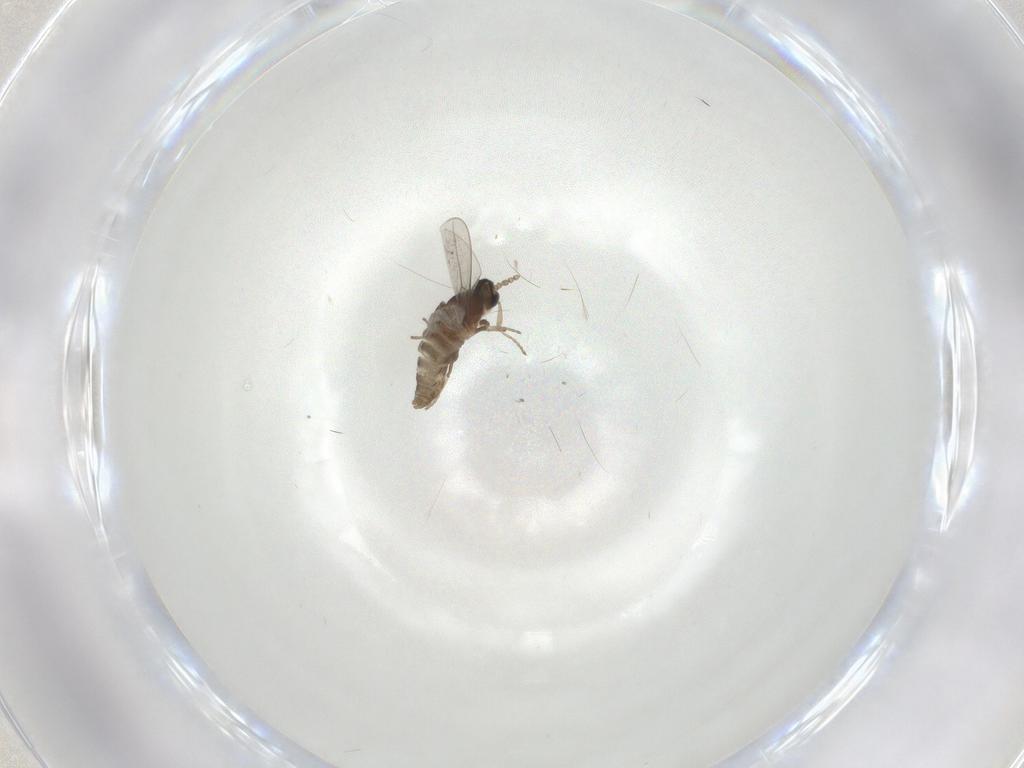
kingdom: Animalia
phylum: Arthropoda
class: Insecta
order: Diptera
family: Cecidomyiidae
